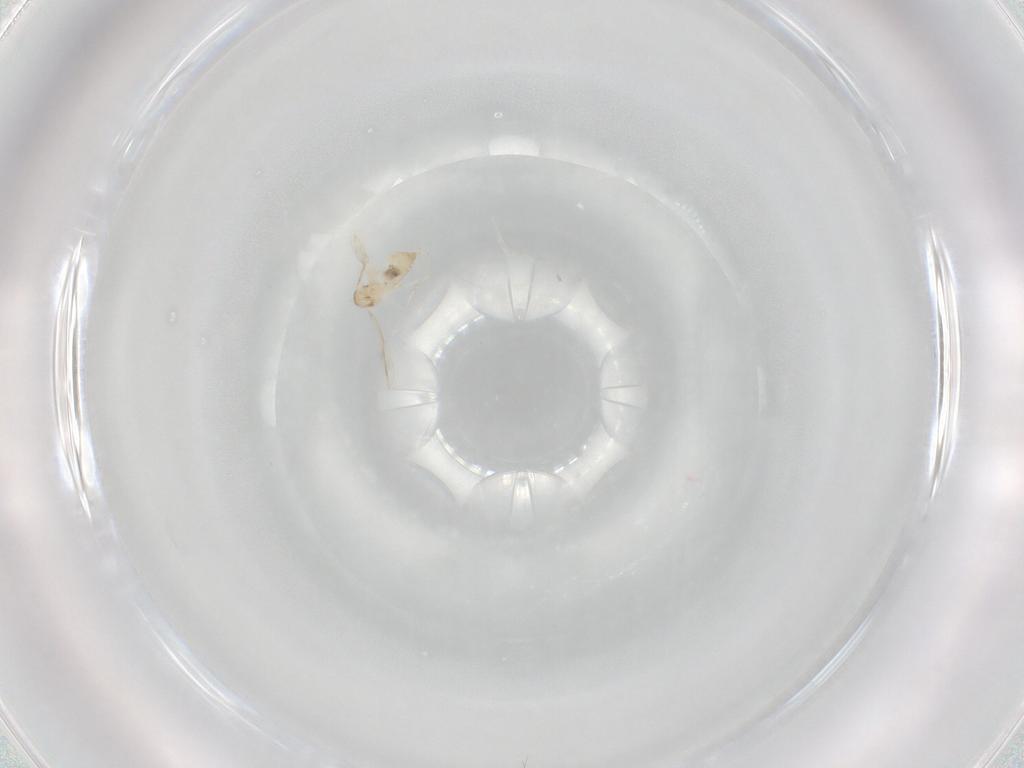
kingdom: Animalia
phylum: Arthropoda
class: Insecta
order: Diptera
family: Cecidomyiidae
